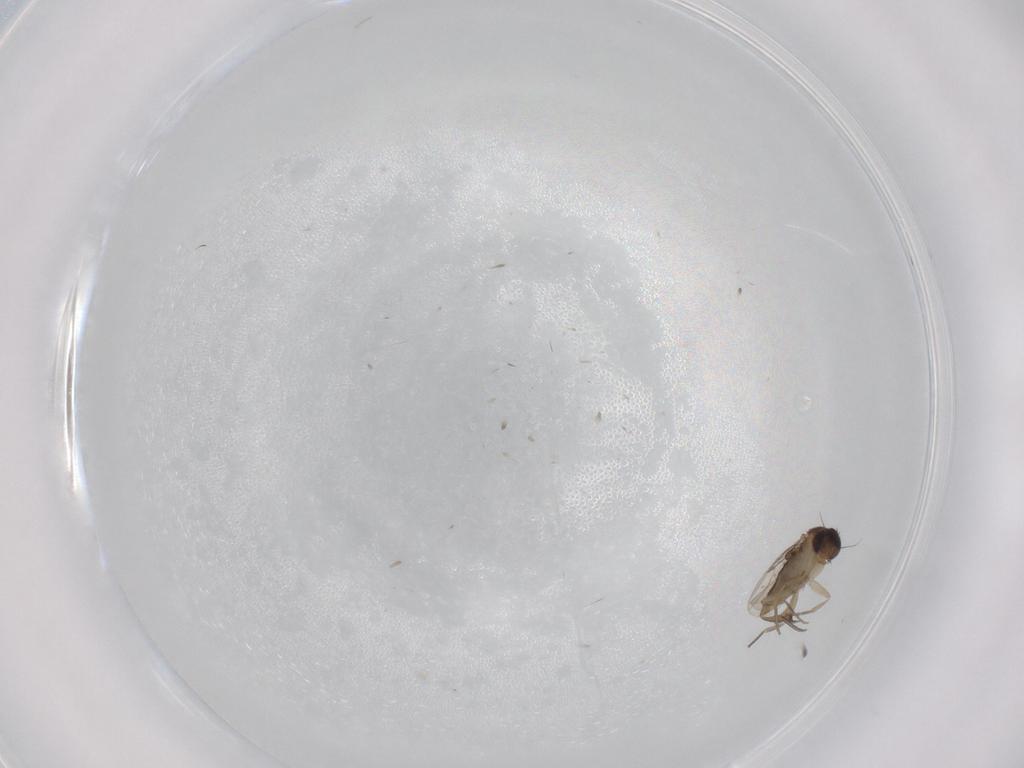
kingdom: Animalia
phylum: Arthropoda
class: Insecta
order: Diptera
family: Phoridae
